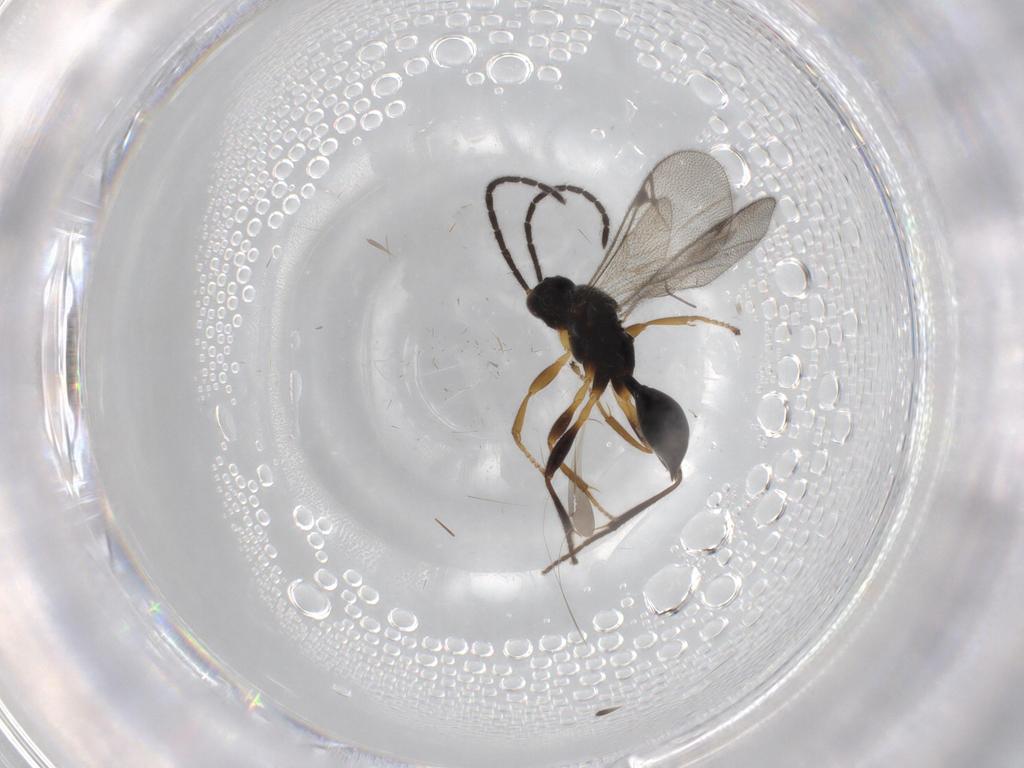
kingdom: Animalia
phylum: Arthropoda
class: Insecta
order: Hymenoptera
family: Proctotrupidae
